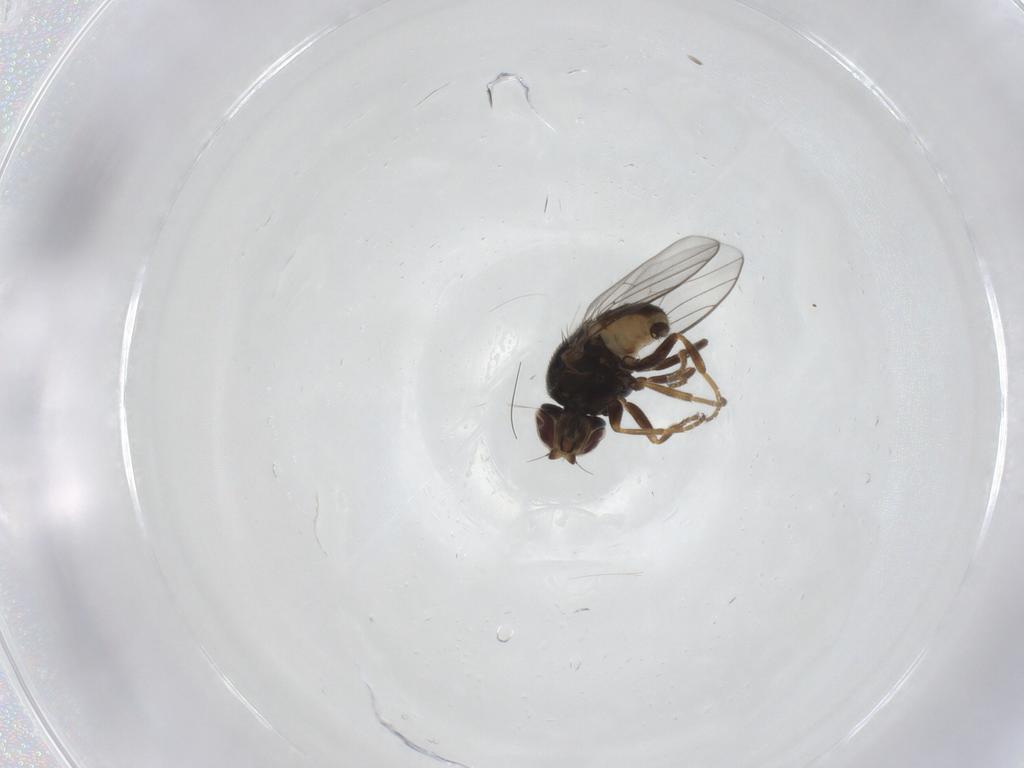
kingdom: Animalia
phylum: Arthropoda
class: Insecta
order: Diptera
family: Chloropidae
